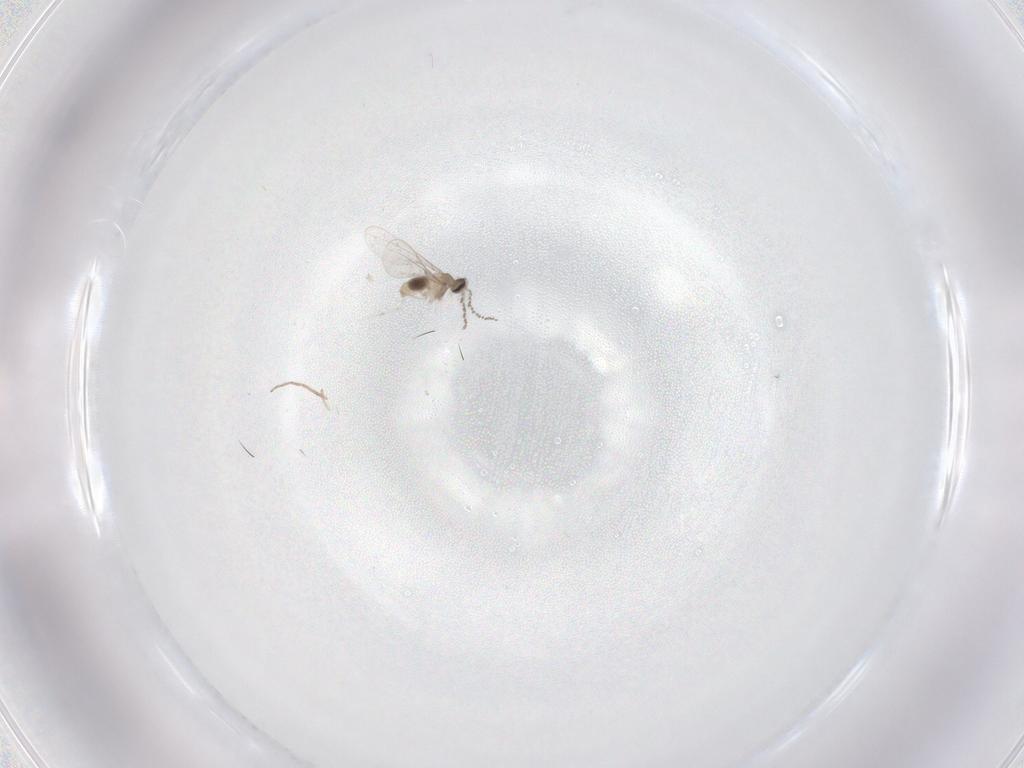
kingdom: Animalia
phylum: Arthropoda
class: Insecta
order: Diptera
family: Cecidomyiidae
